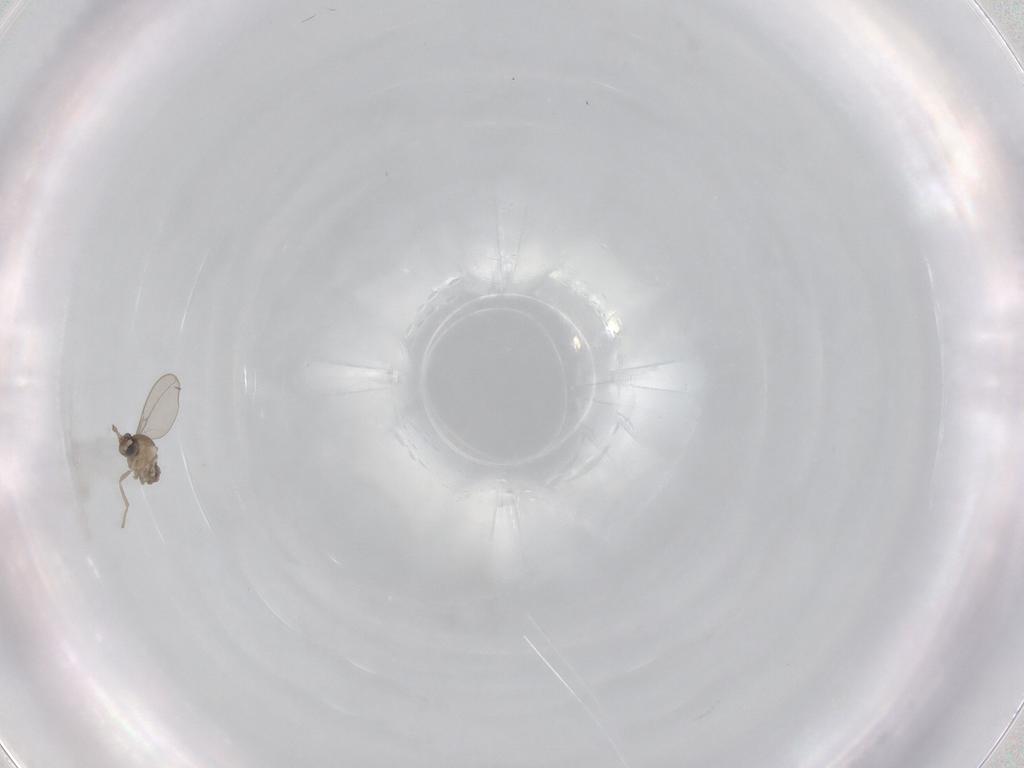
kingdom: Animalia
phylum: Arthropoda
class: Insecta
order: Diptera
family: Cecidomyiidae
